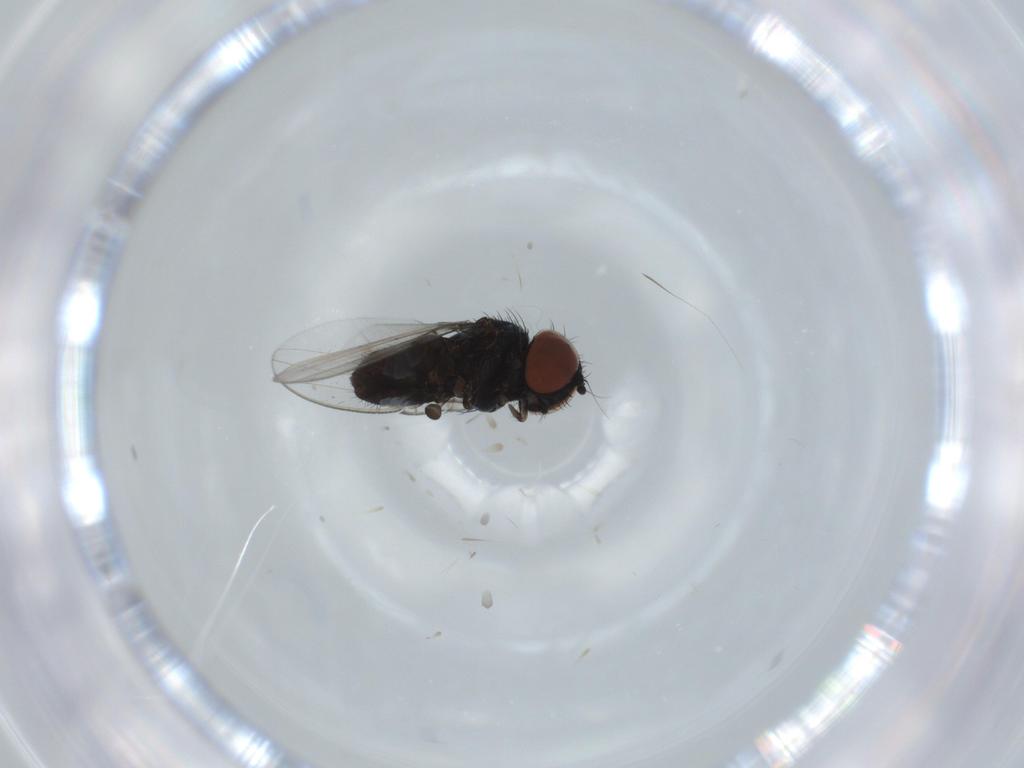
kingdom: Animalia
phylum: Arthropoda
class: Insecta
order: Diptera
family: Milichiidae
